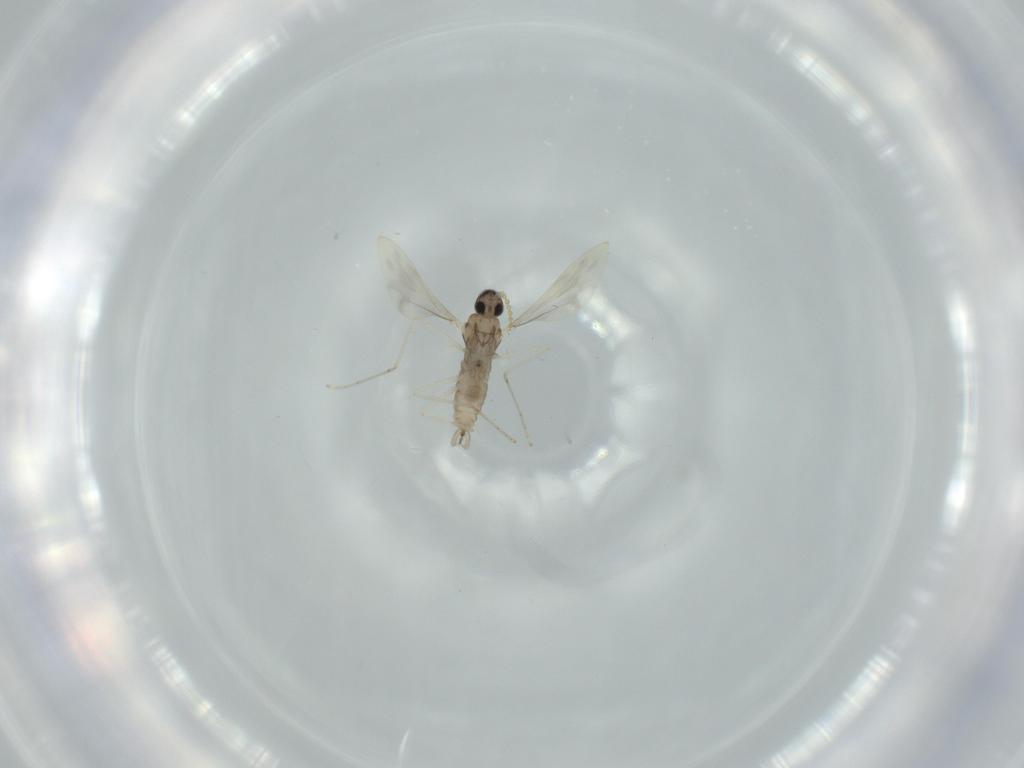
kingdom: Animalia
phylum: Arthropoda
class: Insecta
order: Diptera
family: Cecidomyiidae
